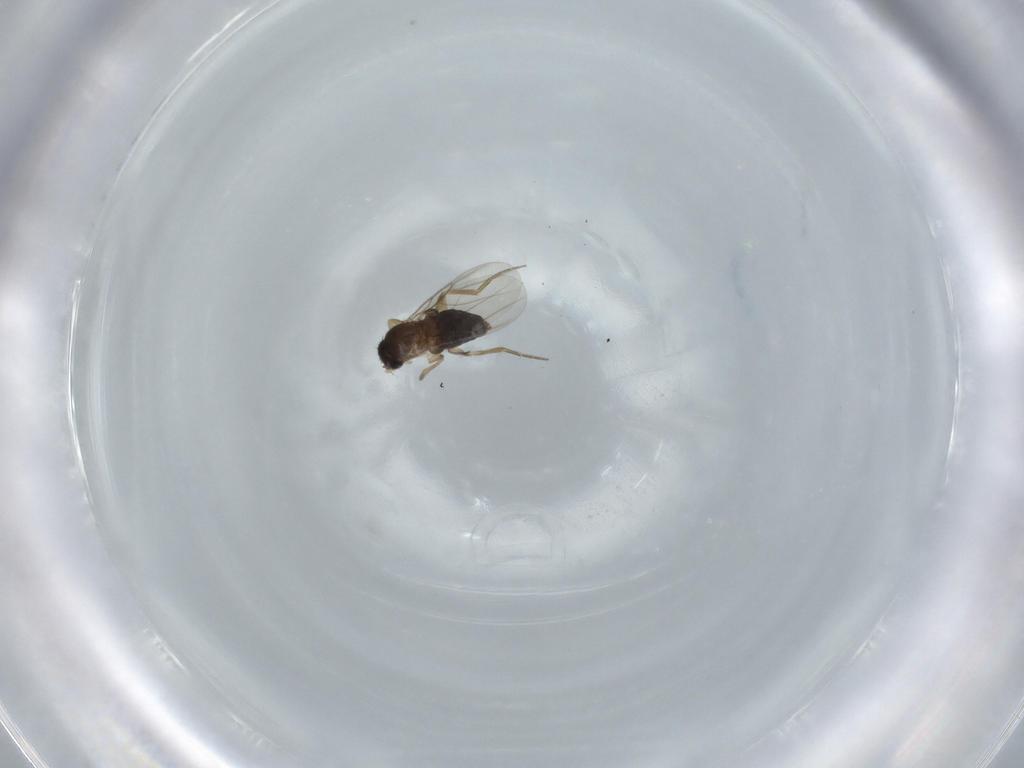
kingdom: Animalia
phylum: Arthropoda
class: Insecta
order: Diptera
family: Phoridae
